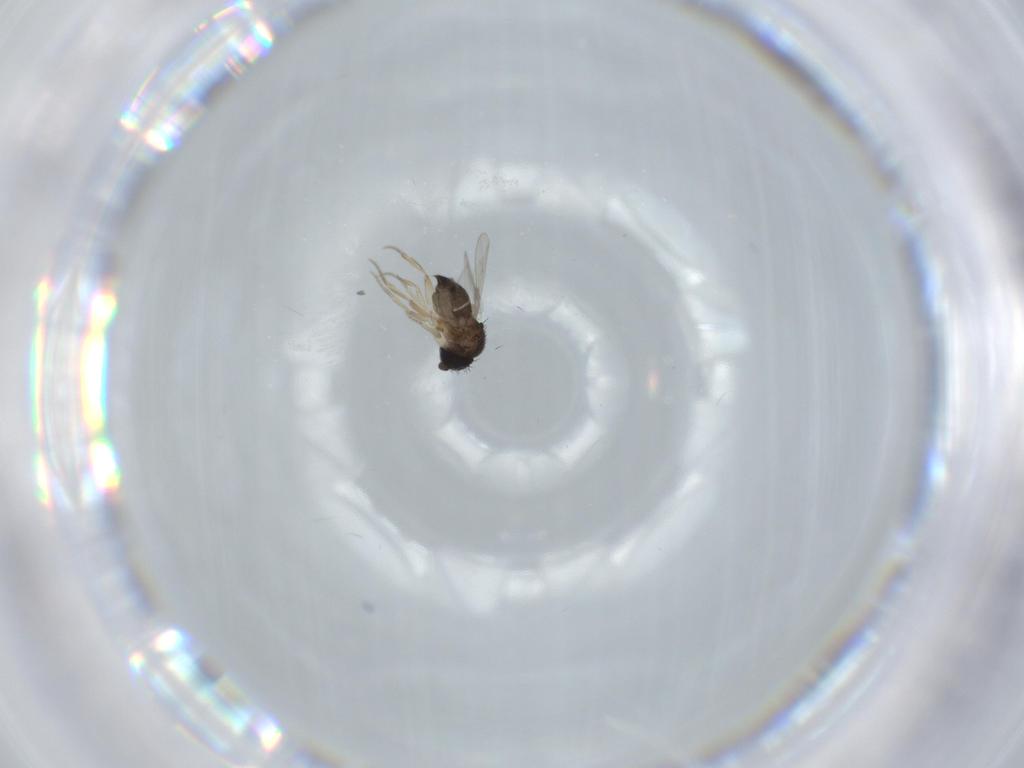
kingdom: Animalia
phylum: Arthropoda
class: Insecta
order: Diptera
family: Phoridae
